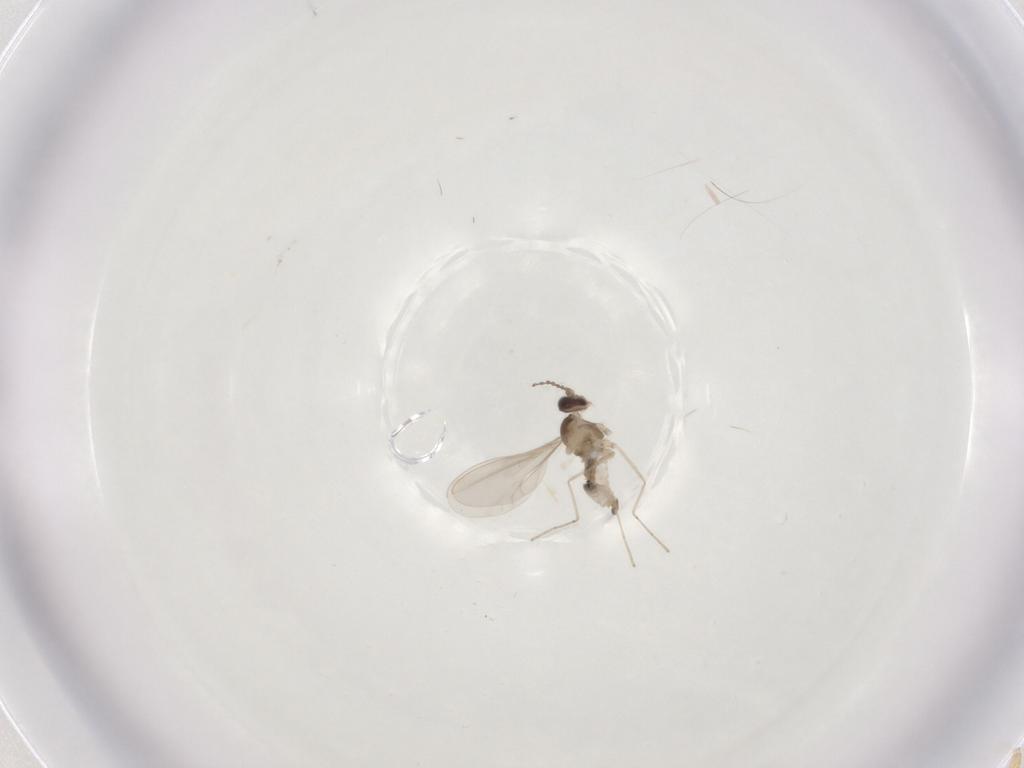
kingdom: Animalia
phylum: Arthropoda
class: Insecta
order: Diptera
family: Cecidomyiidae
